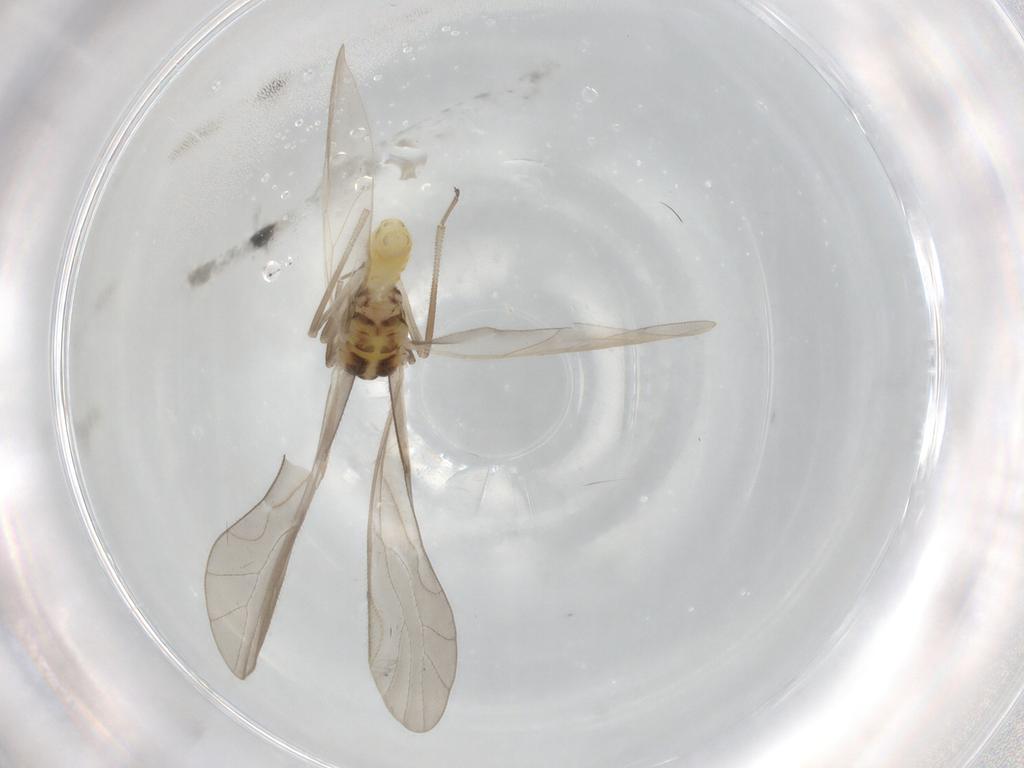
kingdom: Animalia
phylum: Arthropoda
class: Insecta
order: Psocodea
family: Caeciliusidae
